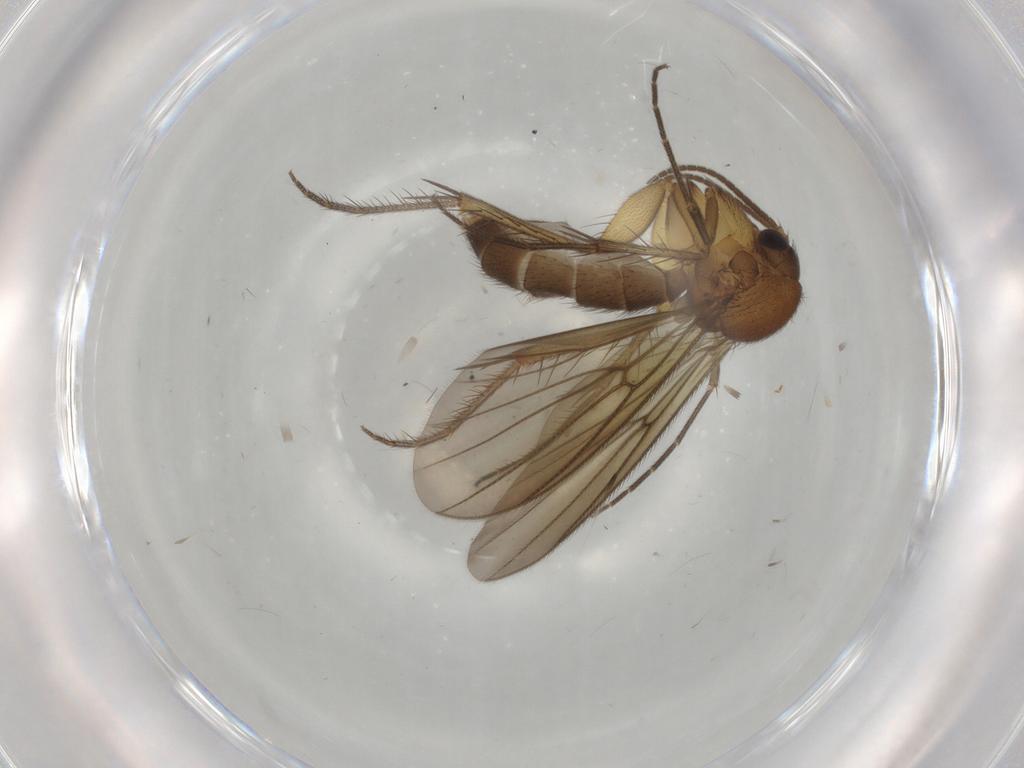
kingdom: Animalia
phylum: Arthropoda
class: Insecta
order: Diptera
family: Mycetophilidae
